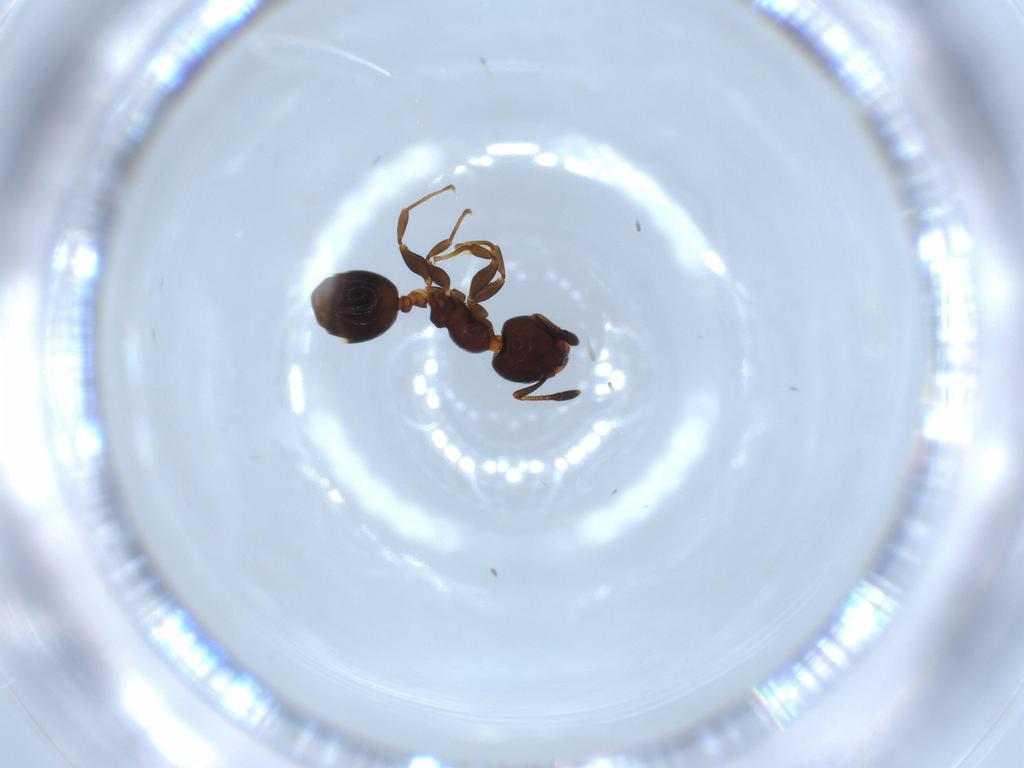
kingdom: Animalia
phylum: Arthropoda
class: Insecta
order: Hymenoptera
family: Formicidae
